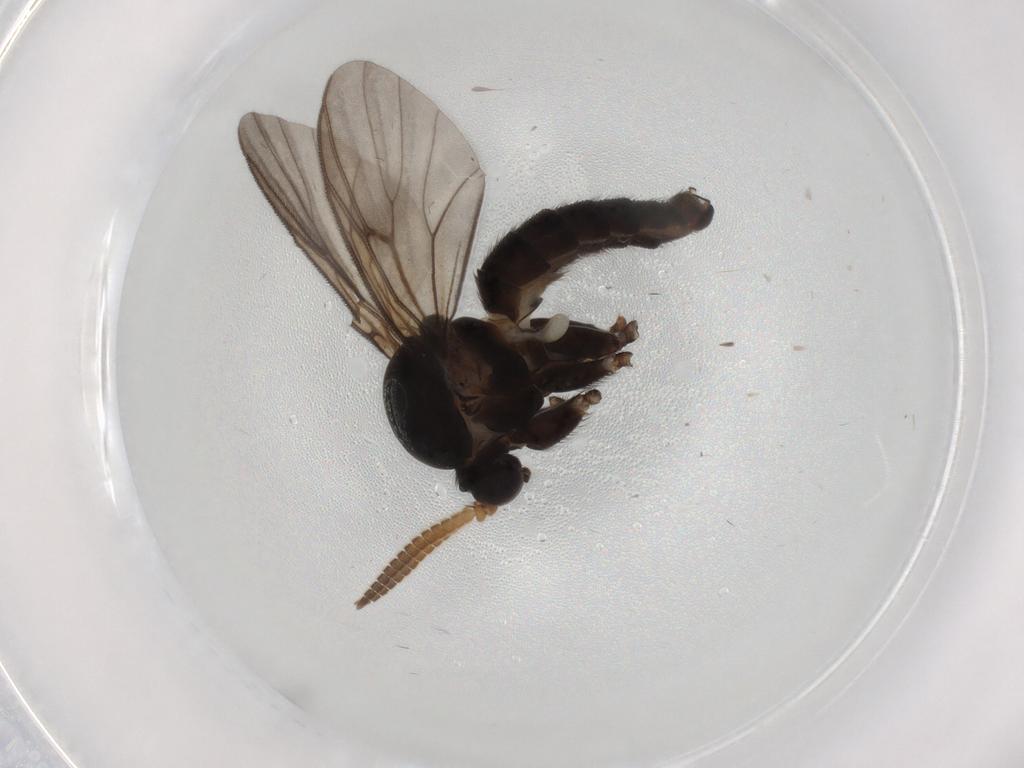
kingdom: Animalia
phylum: Arthropoda
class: Insecta
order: Diptera
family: Mycetophilidae
